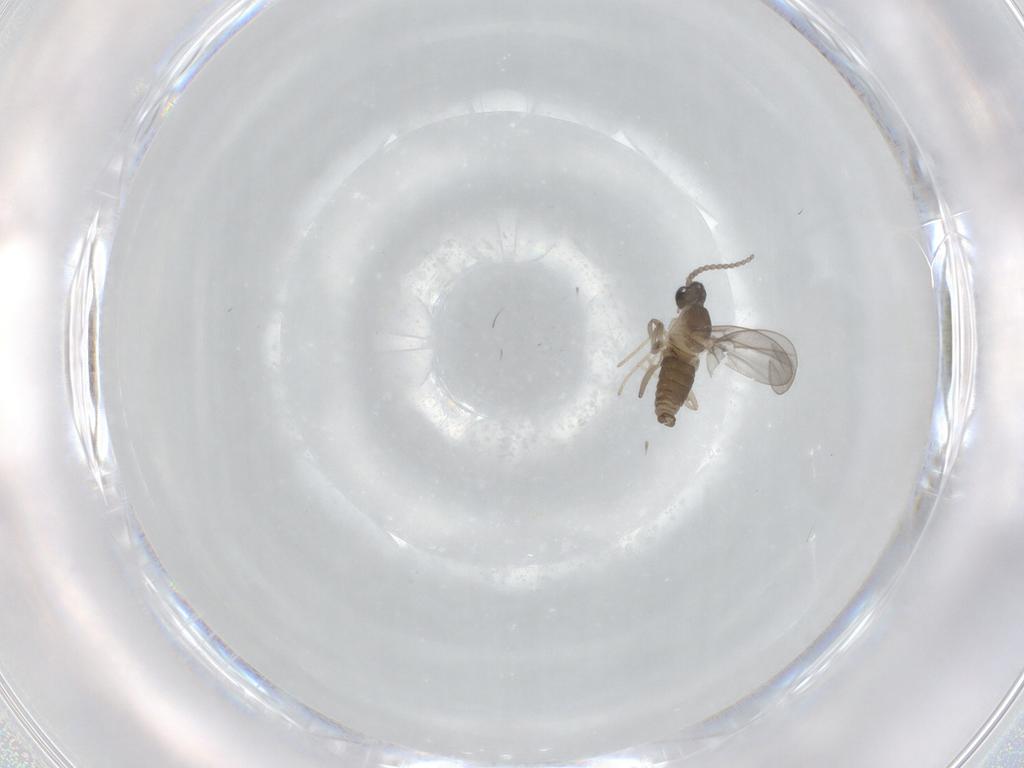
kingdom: Animalia
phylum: Arthropoda
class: Insecta
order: Diptera
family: Cecidomyiidae
